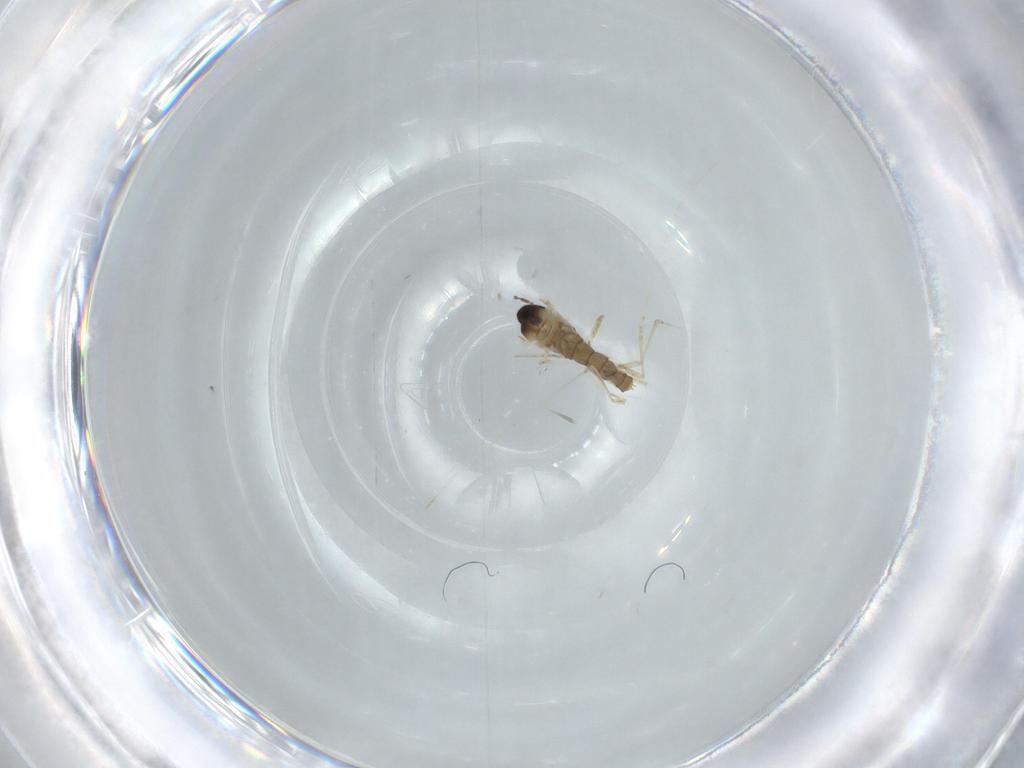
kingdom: Animalia
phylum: Arthropoda
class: Insecta
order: Diptera
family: Cecidomyiidae
